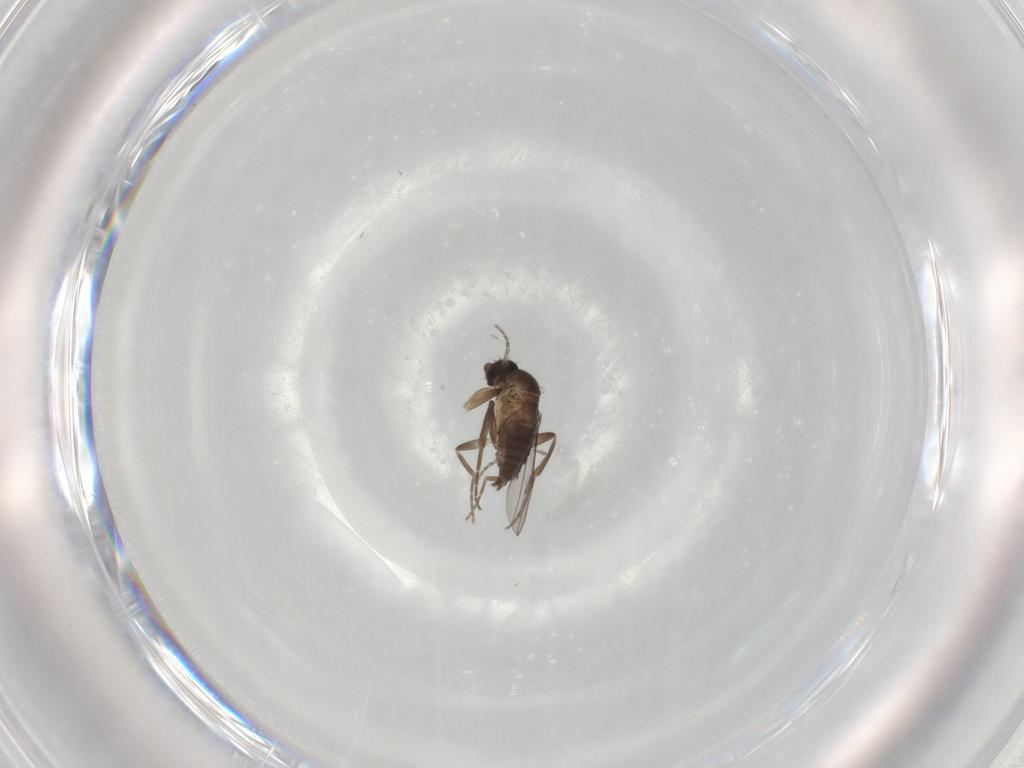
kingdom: Animalia
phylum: Arthropoda
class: Insecta
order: Diptera
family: Phoridae
